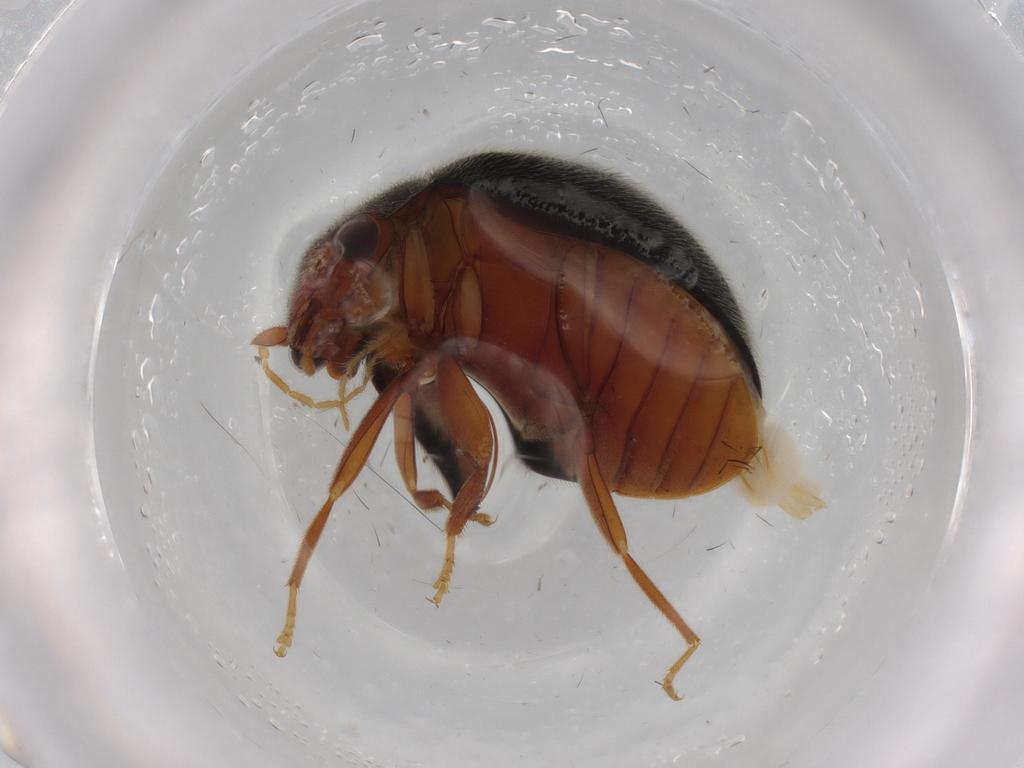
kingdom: Animalia
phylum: Arthropoda
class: Insecta
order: Coleoptera
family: Scirtidae
